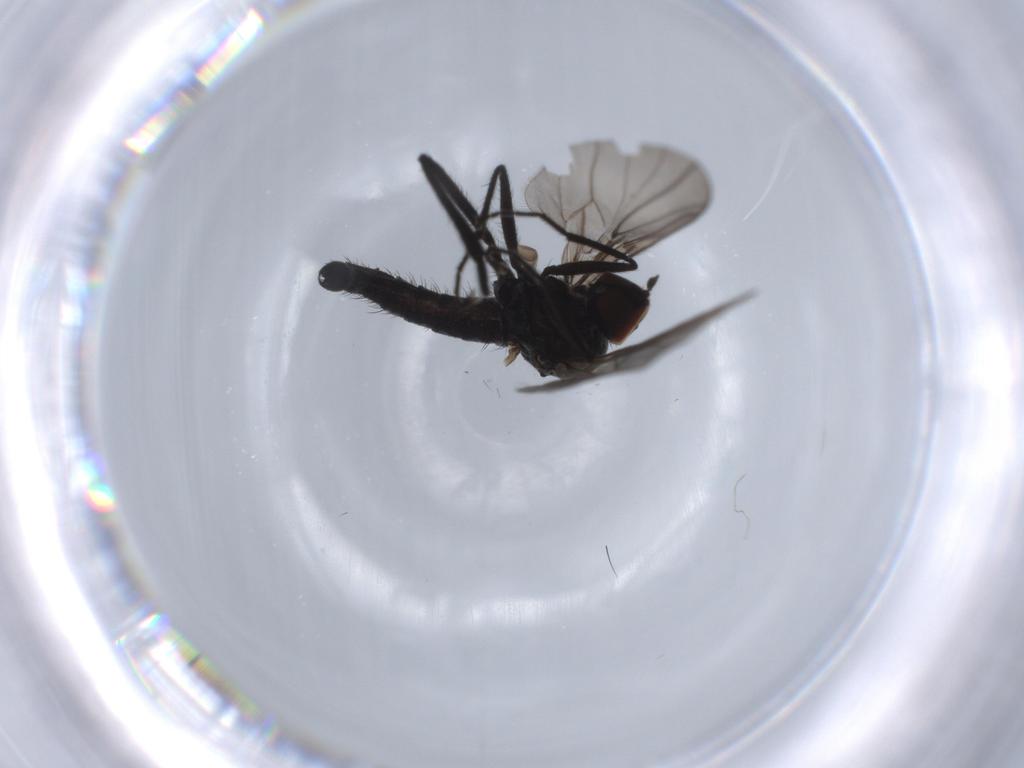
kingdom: Animalia
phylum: Arthropoda
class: Insecta
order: Diptera
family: Sciaridae
